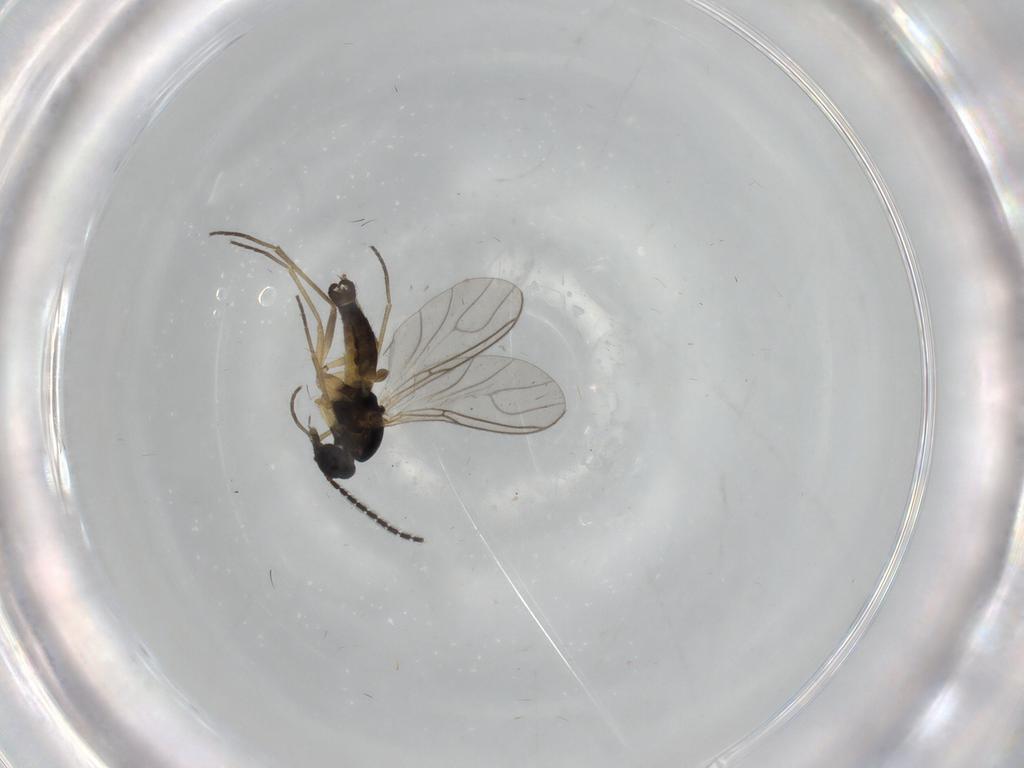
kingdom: Animalia
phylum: Arthropoda
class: Insecta
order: Diptera
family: Sciaridae
